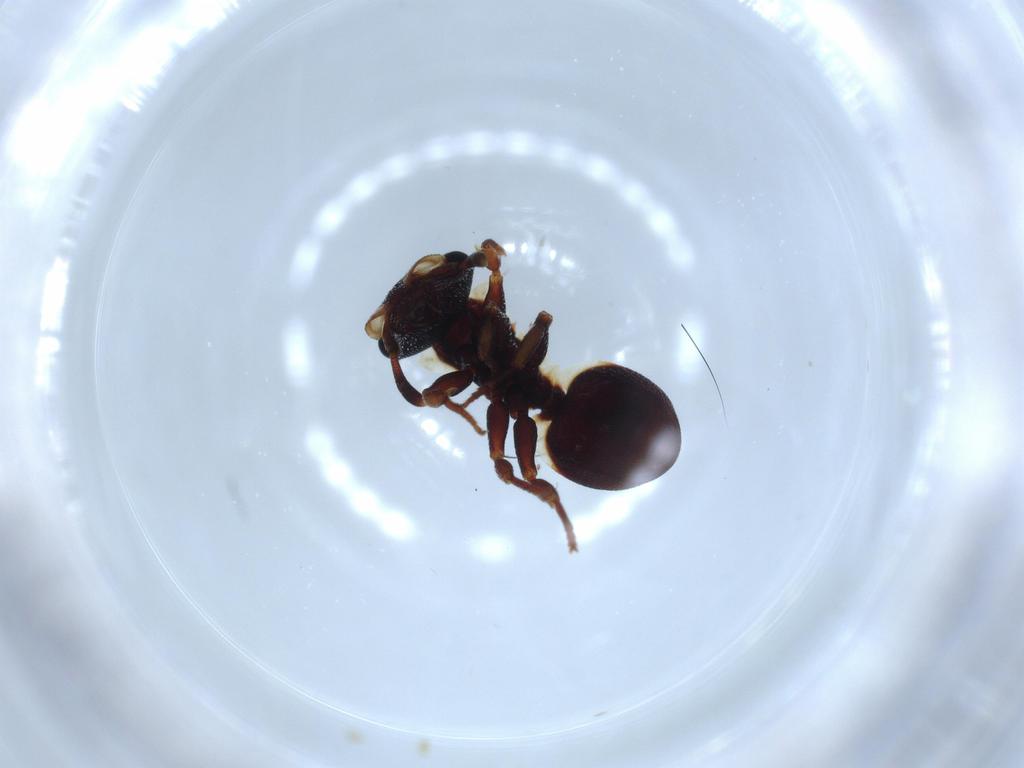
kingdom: Animalia
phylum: Arthropoda
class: Insecta
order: Hymenoptera
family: Formicidae
